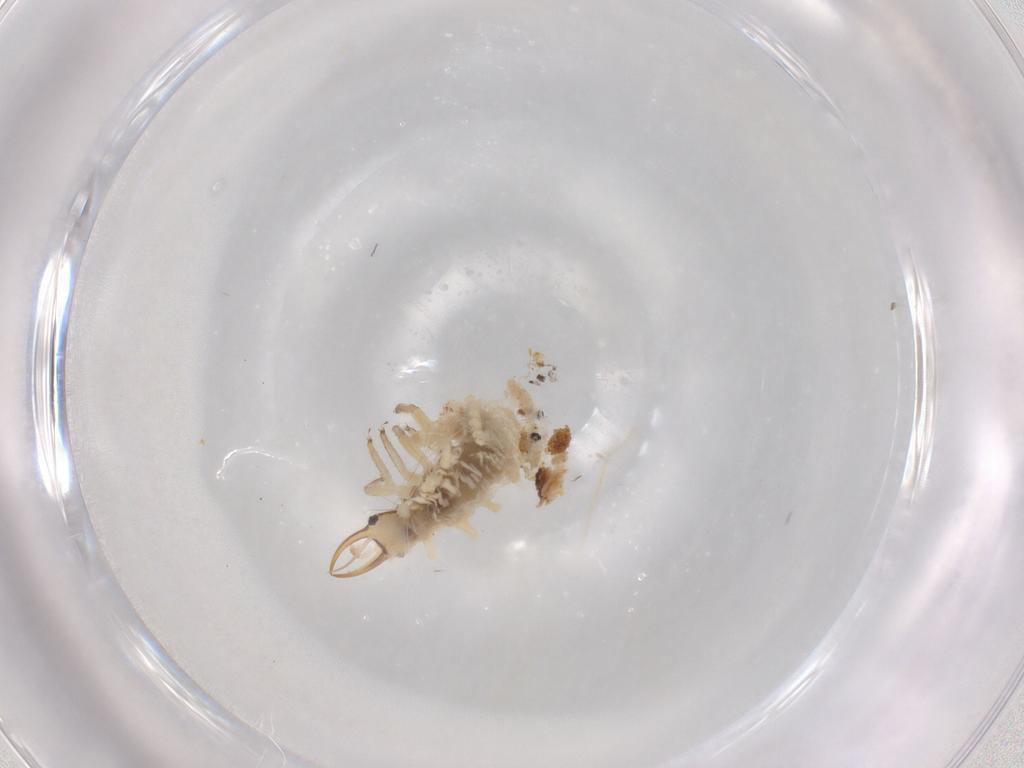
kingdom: Animalia
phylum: Arthropoda
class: Insecta
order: Neuroptera
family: Chrysopidae
